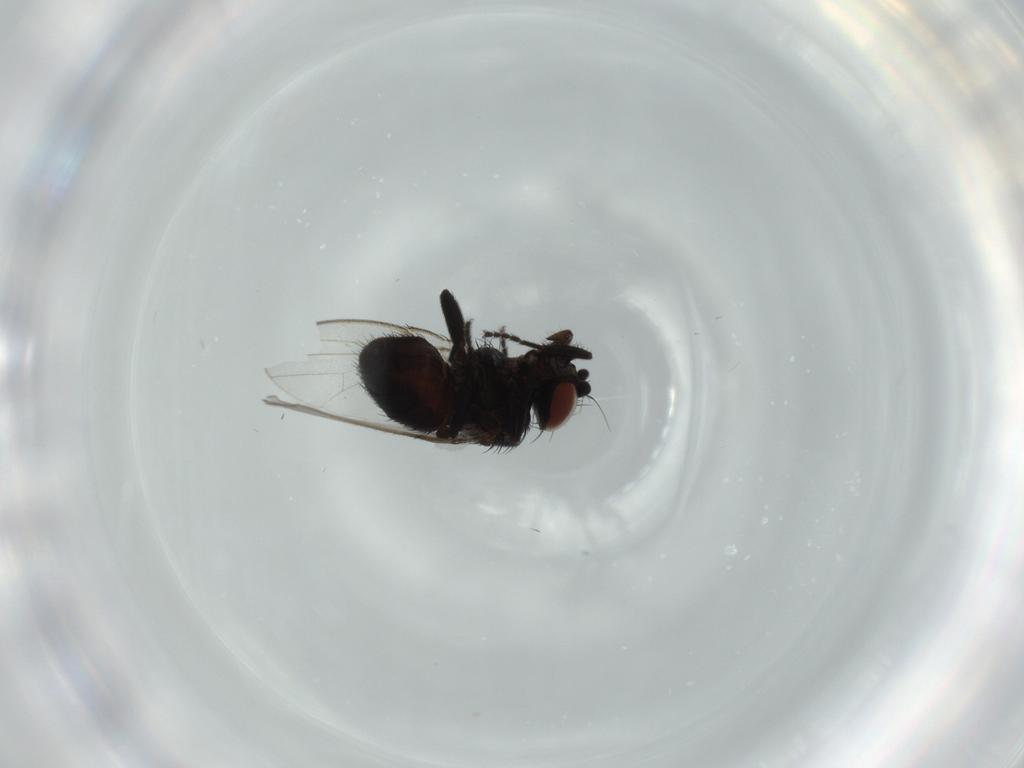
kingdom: Animalia
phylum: Arthropoda
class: Insecta
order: Diptera
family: Milichiidae
